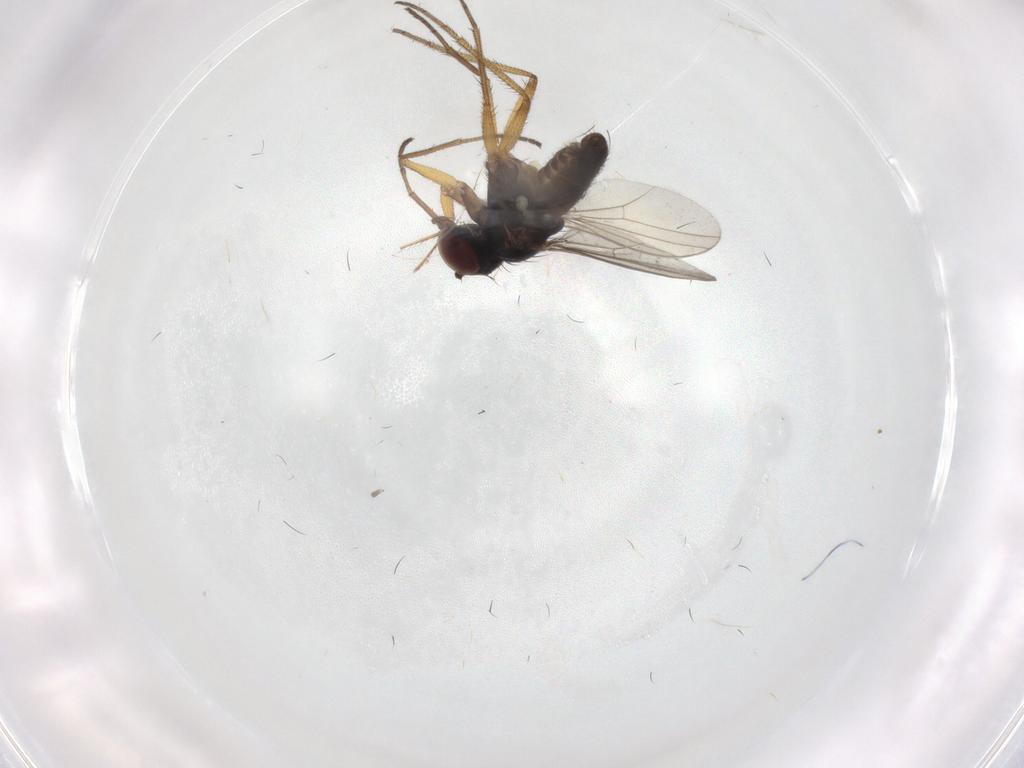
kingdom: Animalia
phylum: Arthropoda
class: Insecta
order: Diptera
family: Dolichopodidae
